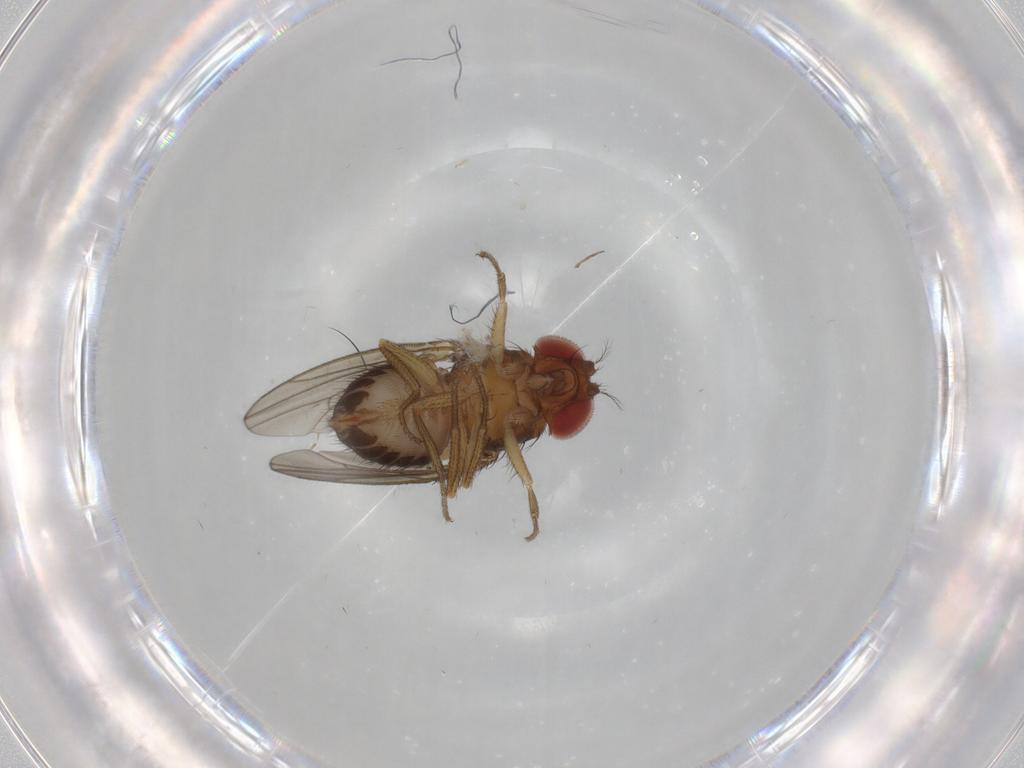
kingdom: Animalia
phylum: Arthropoda
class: Insecta
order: Diptera
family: Drosophilidae
